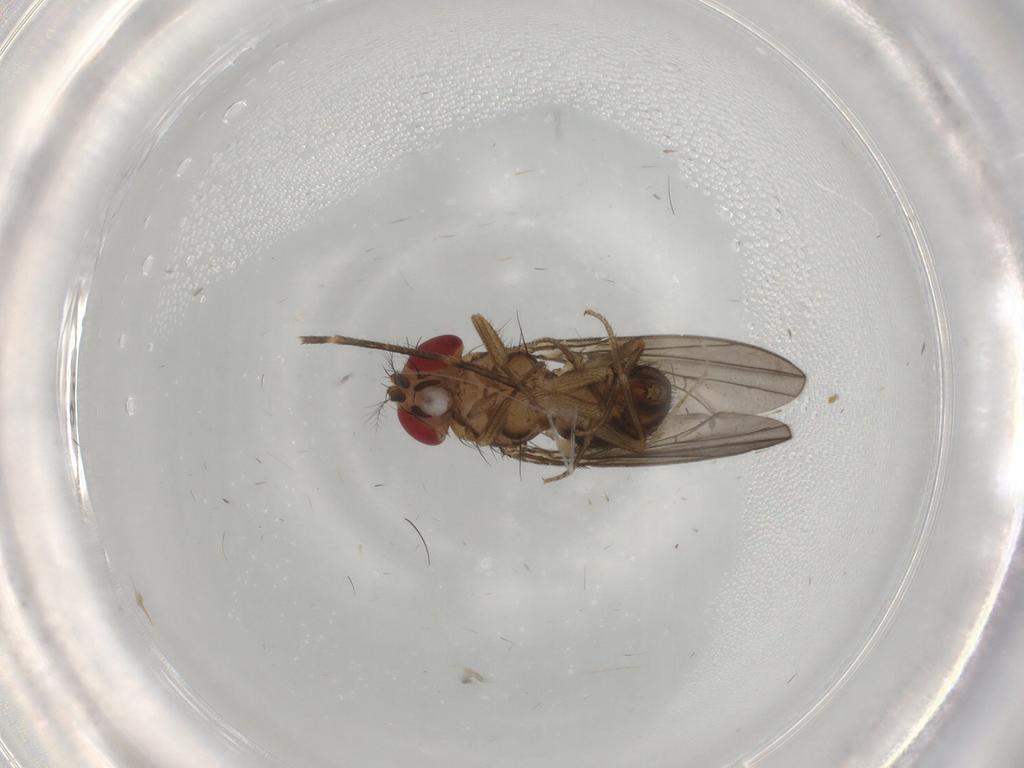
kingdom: Animalia
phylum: Arthropoda
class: Insecta
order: Diptera
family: Drosophilidae
